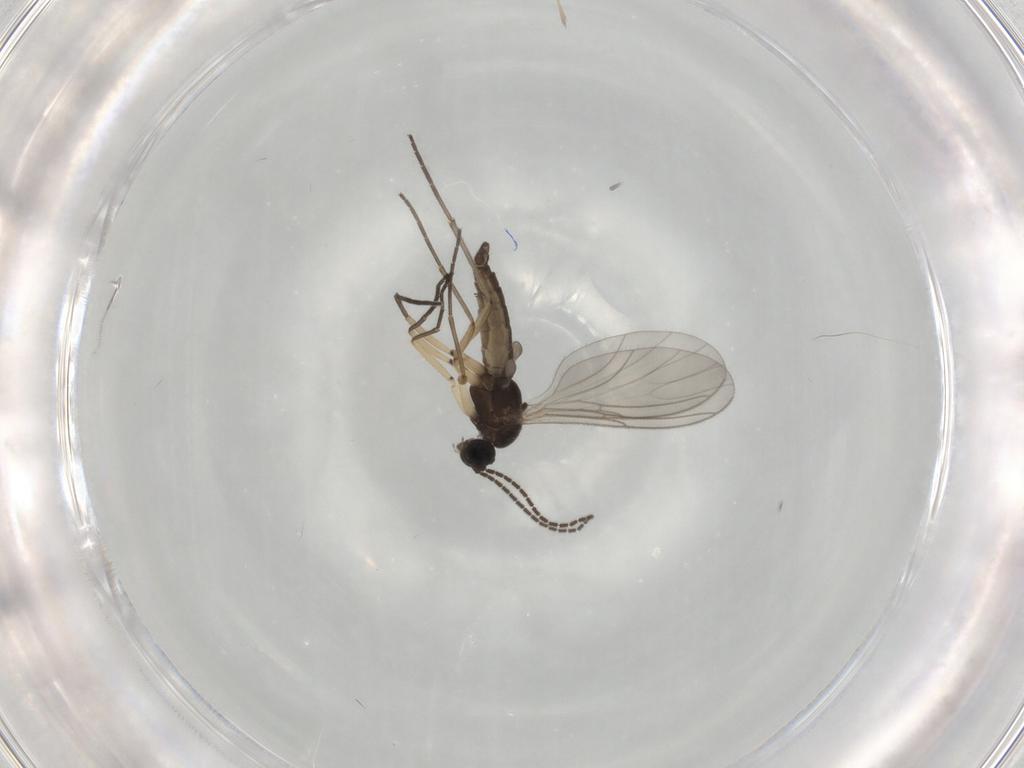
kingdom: Animalia
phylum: Arthropoda
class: Insecta
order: Diptera
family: Sciaridae
